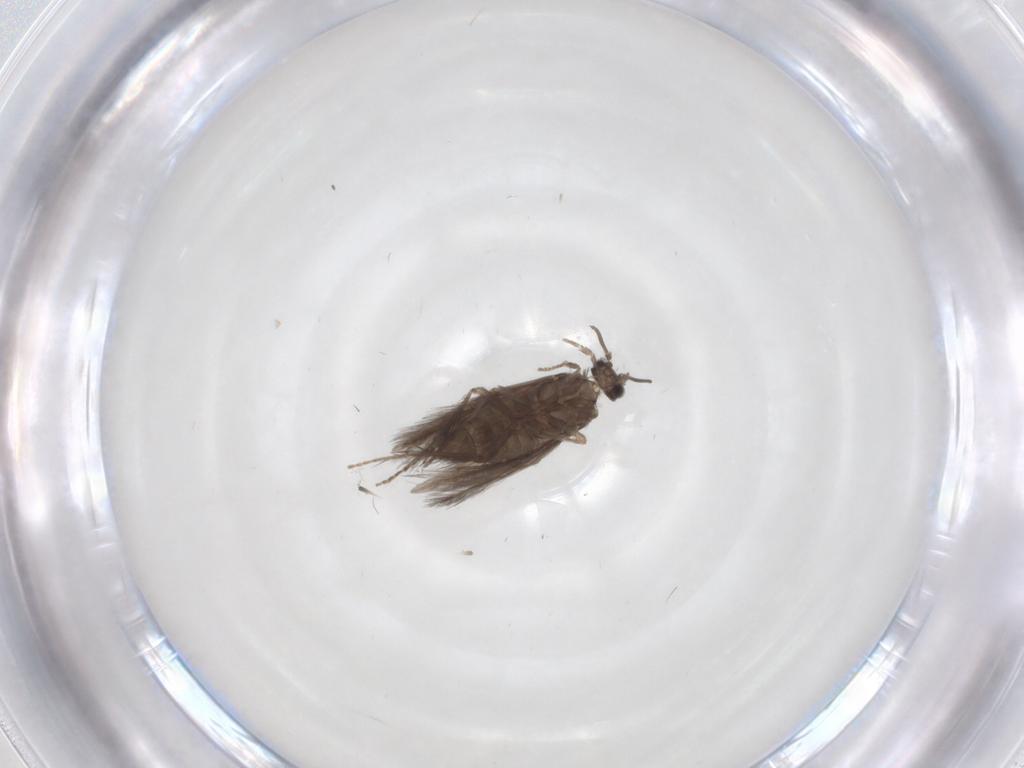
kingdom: Animalia
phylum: Arthropoda
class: Insecta
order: Trichoptera
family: Hydroptilidae
